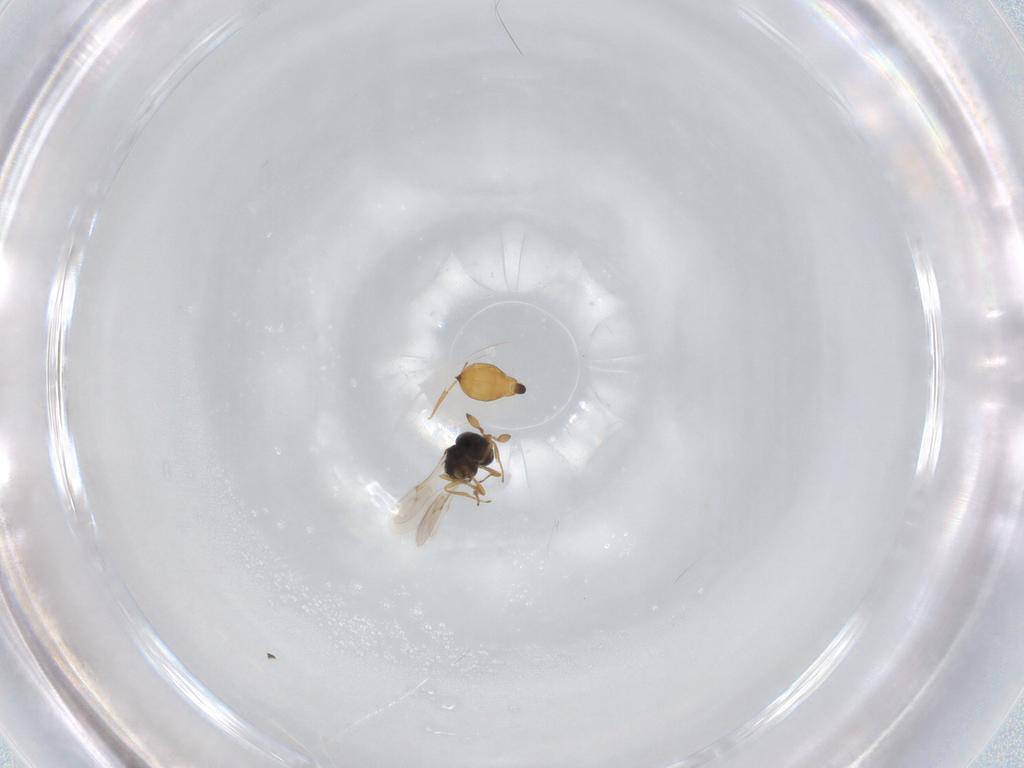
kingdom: Animalia
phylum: Arthropoda
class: Insecta
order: Hymenoptera
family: Scelionidae
